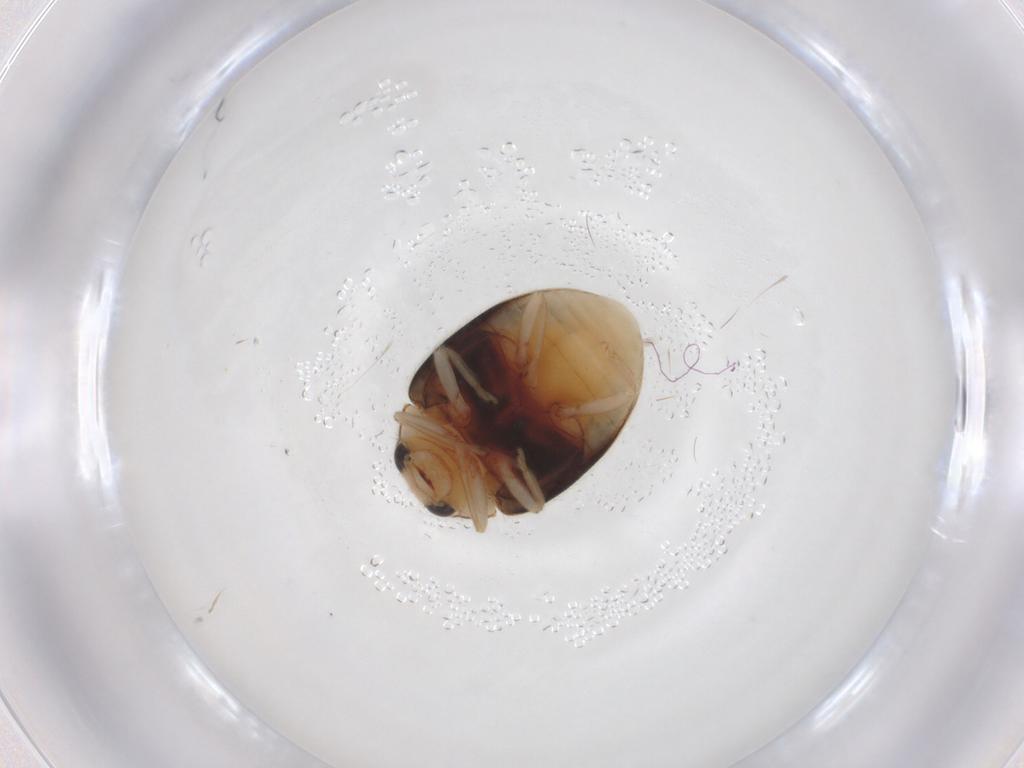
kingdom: Animalia
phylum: Arthropoda
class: Insecta
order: Coleoptera
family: Coccinellidae
